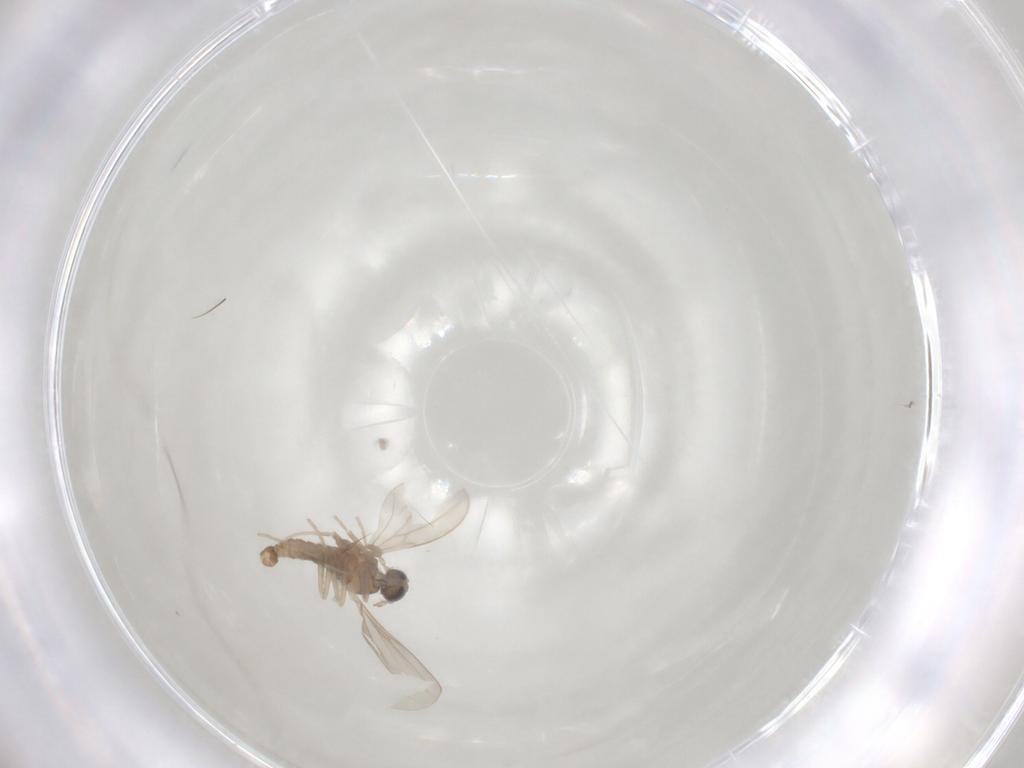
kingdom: Animalia
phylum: Arthropoda
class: Insecta
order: Diptera
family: Cecidomyiidae
